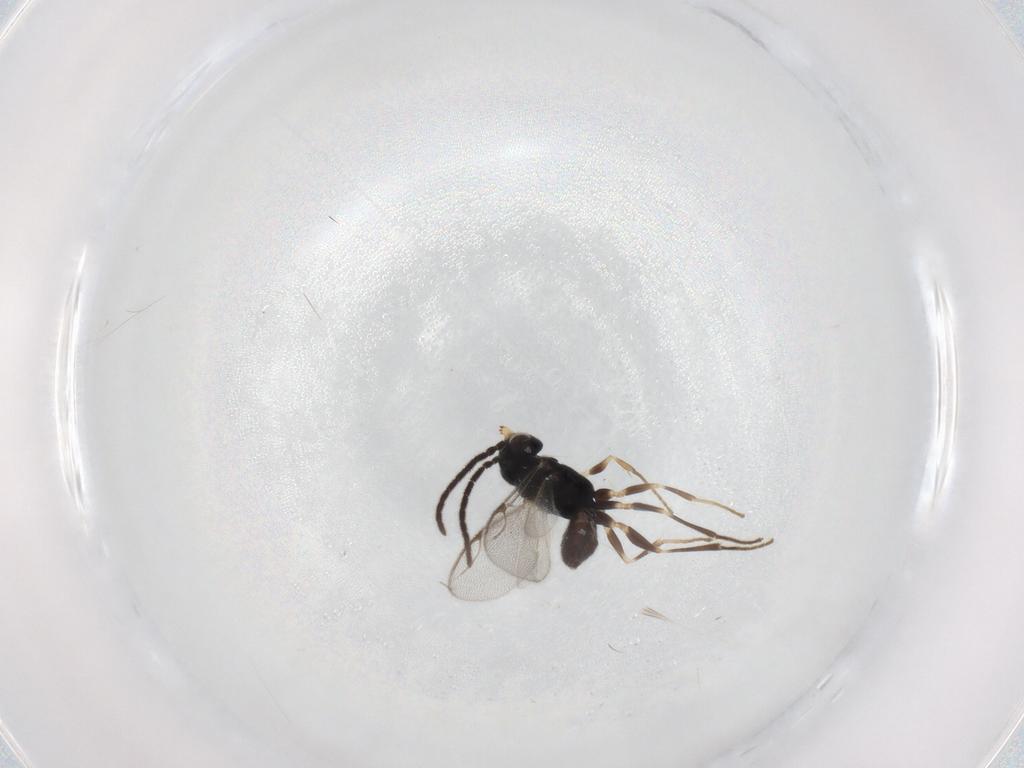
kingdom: Animalia
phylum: Arthropoda
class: Insecta
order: Hymenoptera
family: Dryinidae
